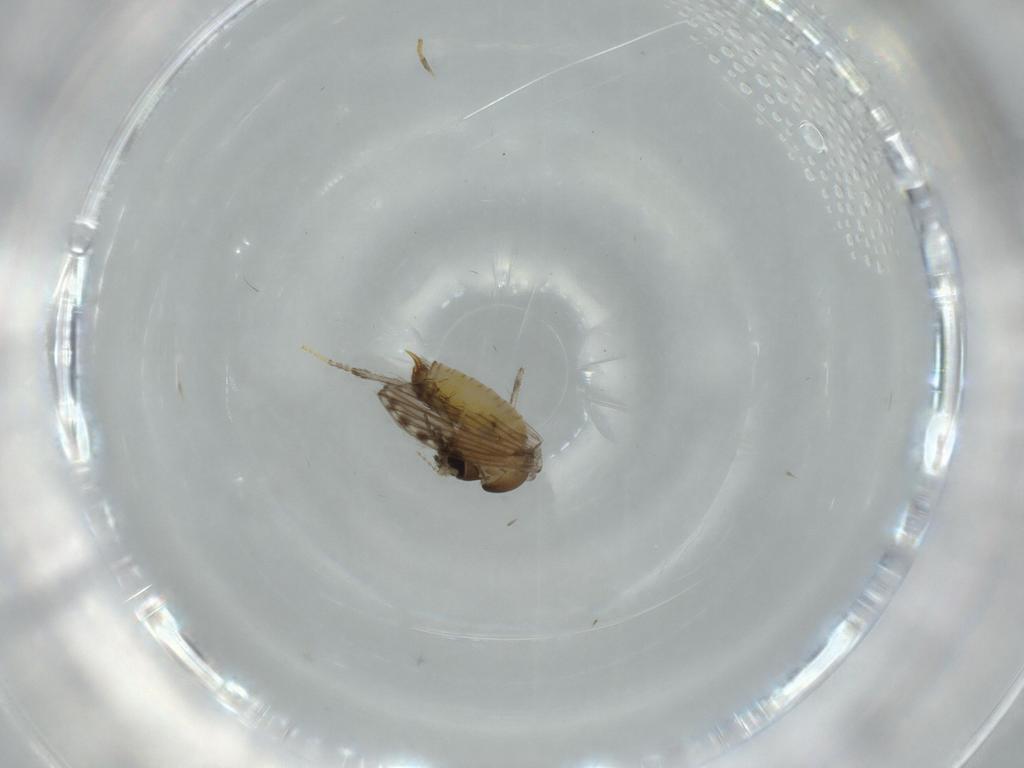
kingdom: Animalia
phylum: Arthropoda
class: Insecta
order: Diptera
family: Psychodidae
